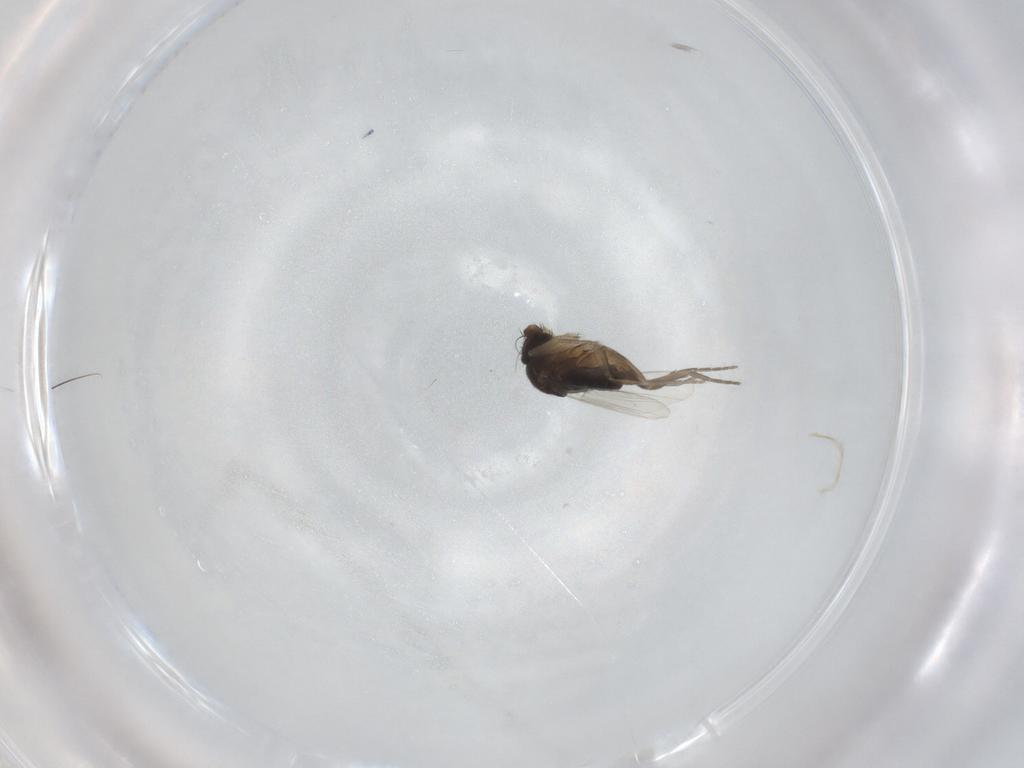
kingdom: Animalia
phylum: Arthropoda
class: Insecta
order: Diptera
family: Phoridae
